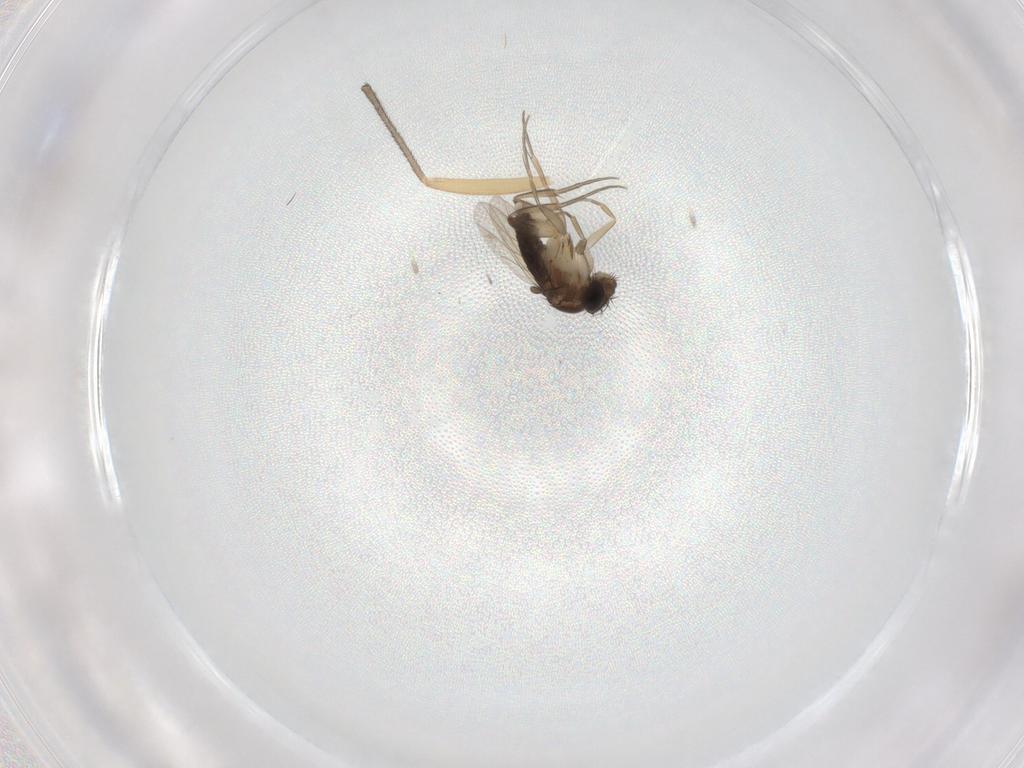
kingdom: Animalia
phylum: Arthropoda
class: Insecta
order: Diptera
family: Phoridae
